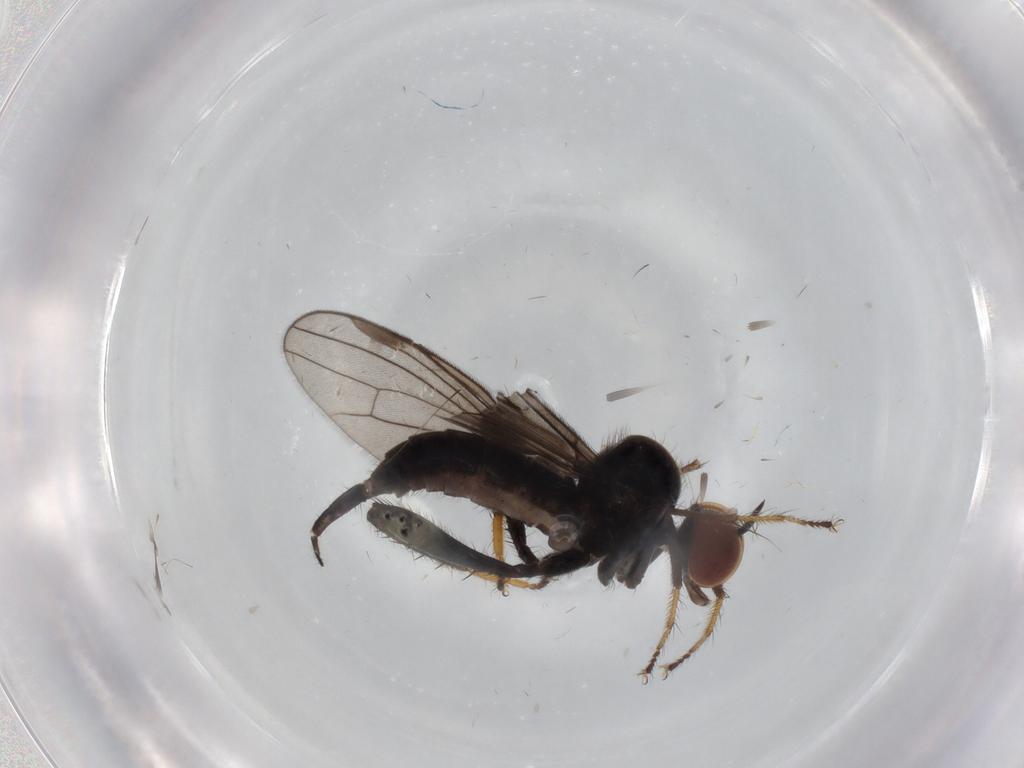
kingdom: Animalia
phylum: Arthropoda
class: Insecta
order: Diptera
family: Hybotidae
